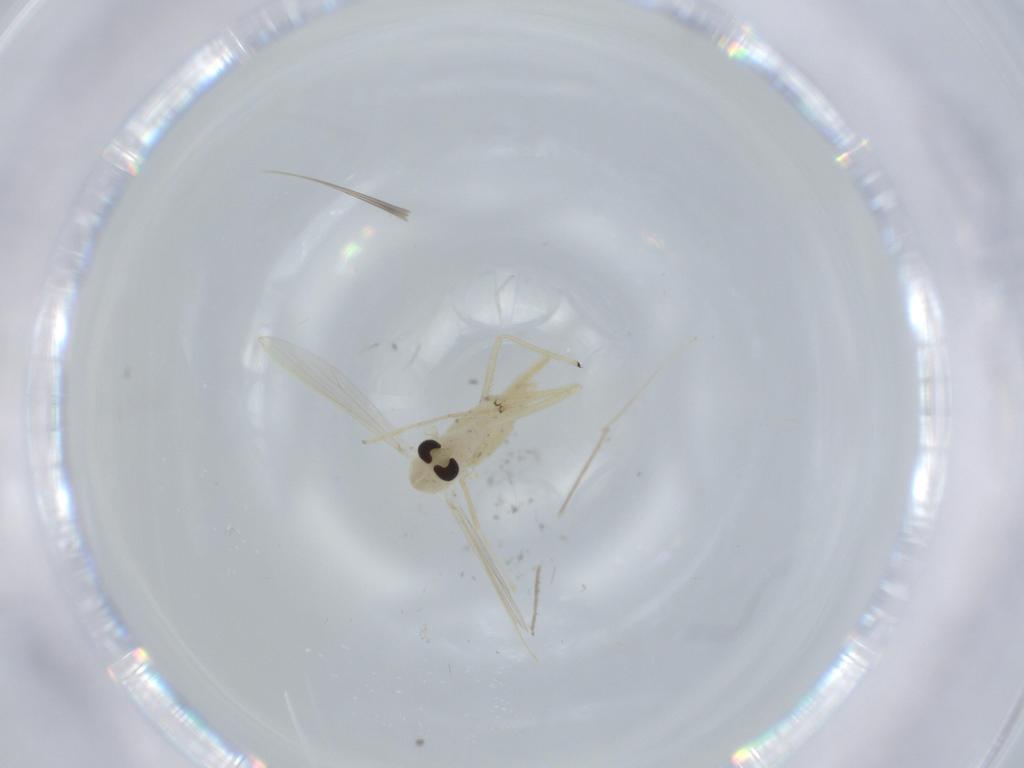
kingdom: Animalia
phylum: Arthropoda
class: Insecta
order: Diptera
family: Chironomidae
